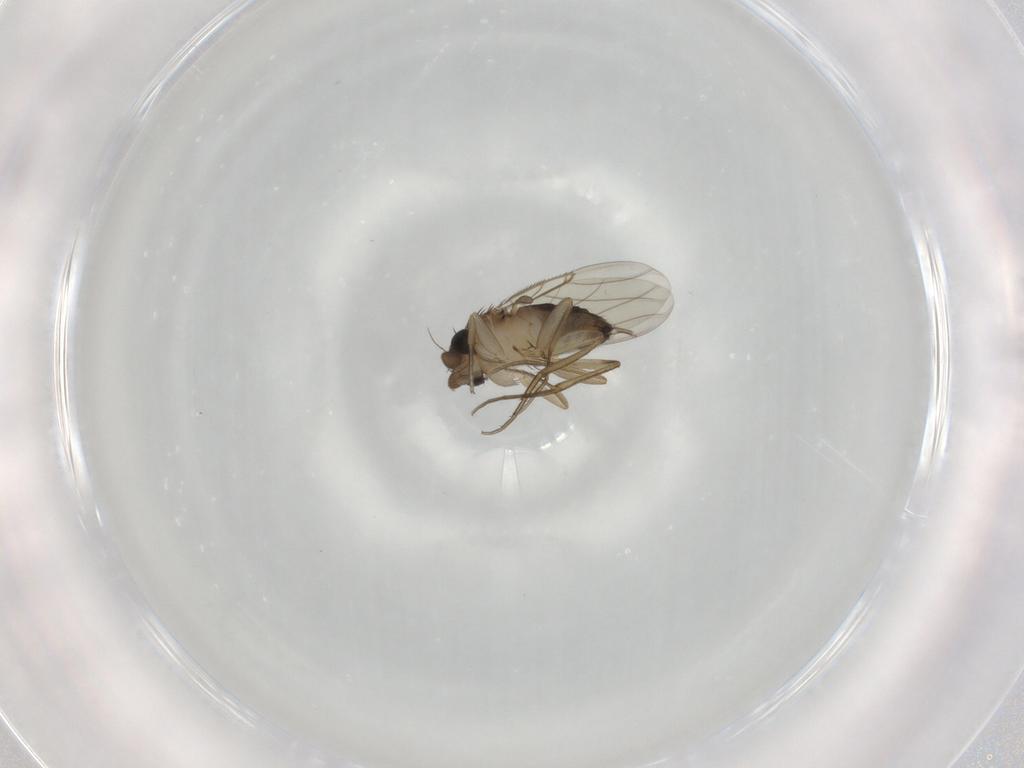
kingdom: Animalia
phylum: Arthropoda
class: Insecta
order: Diptera
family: Phoridae
